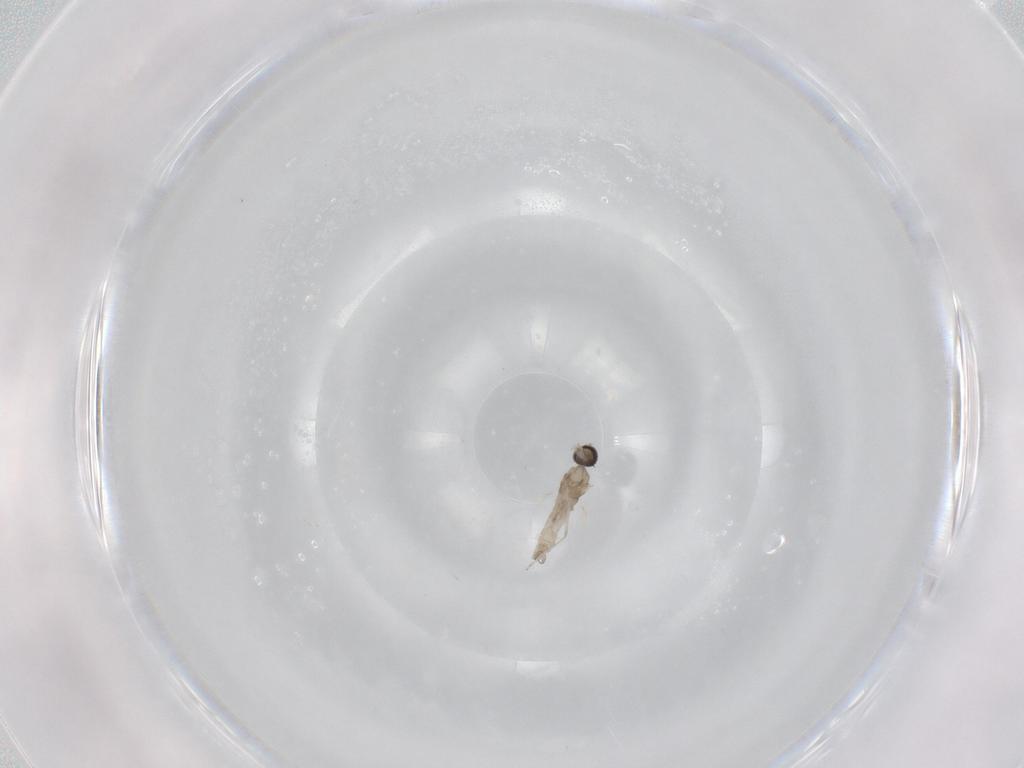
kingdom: Animalia
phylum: Arthropoda
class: Insecta
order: Diptera
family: Cecidomyiidae
